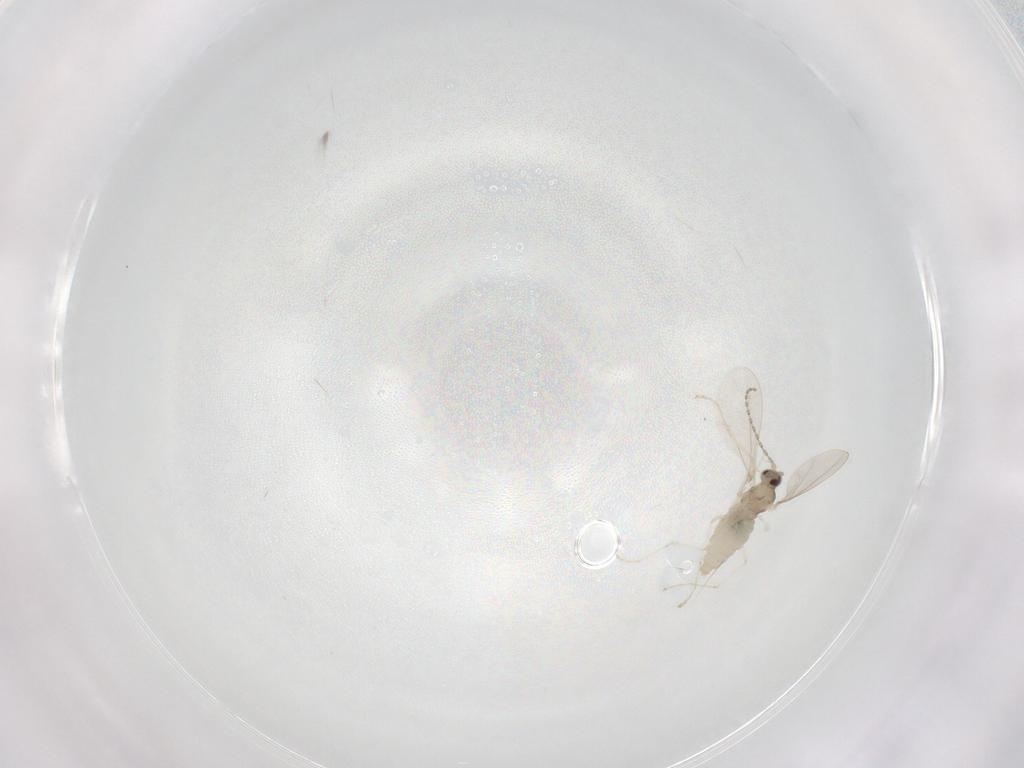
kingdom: Animalia
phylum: Arthropoda
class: Insecta
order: Diptera
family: Cecidomyiidae
